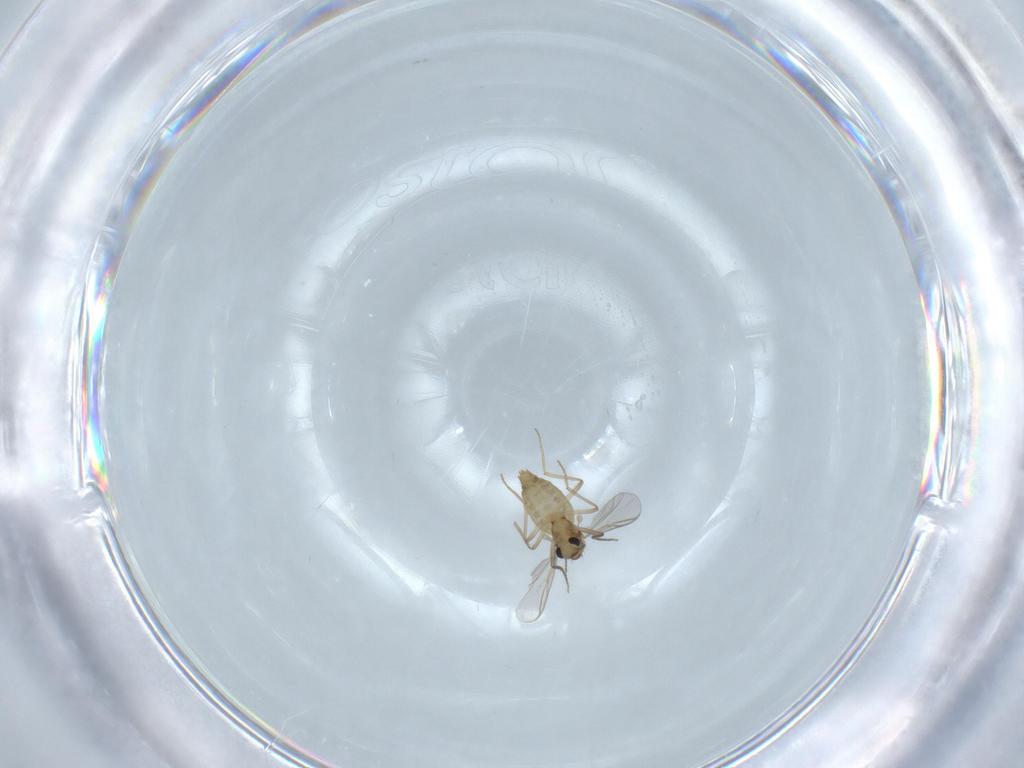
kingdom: Animalia
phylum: Arthropoda
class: Insecta
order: Diptera
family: Chironomidae
